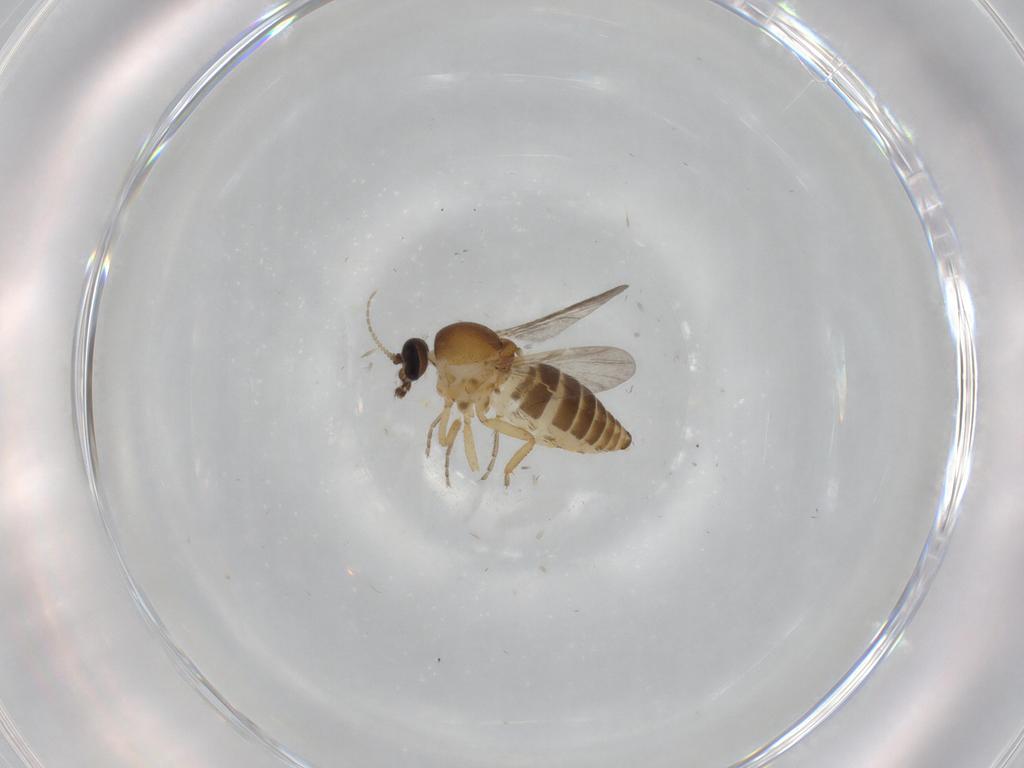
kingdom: Animalia
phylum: Arthropoda
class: Insecta
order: Diptera
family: Ceratopogonidae
